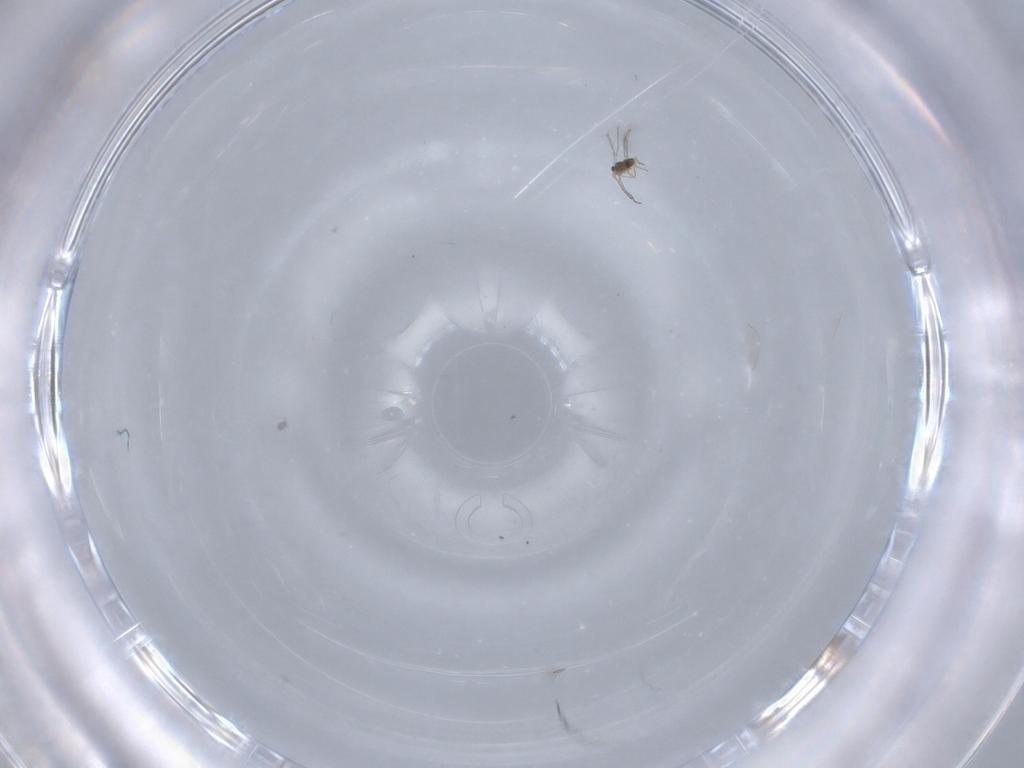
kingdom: Animalia
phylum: Arthropoda
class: Insecta
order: Hymenoptera
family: Mymaridae
